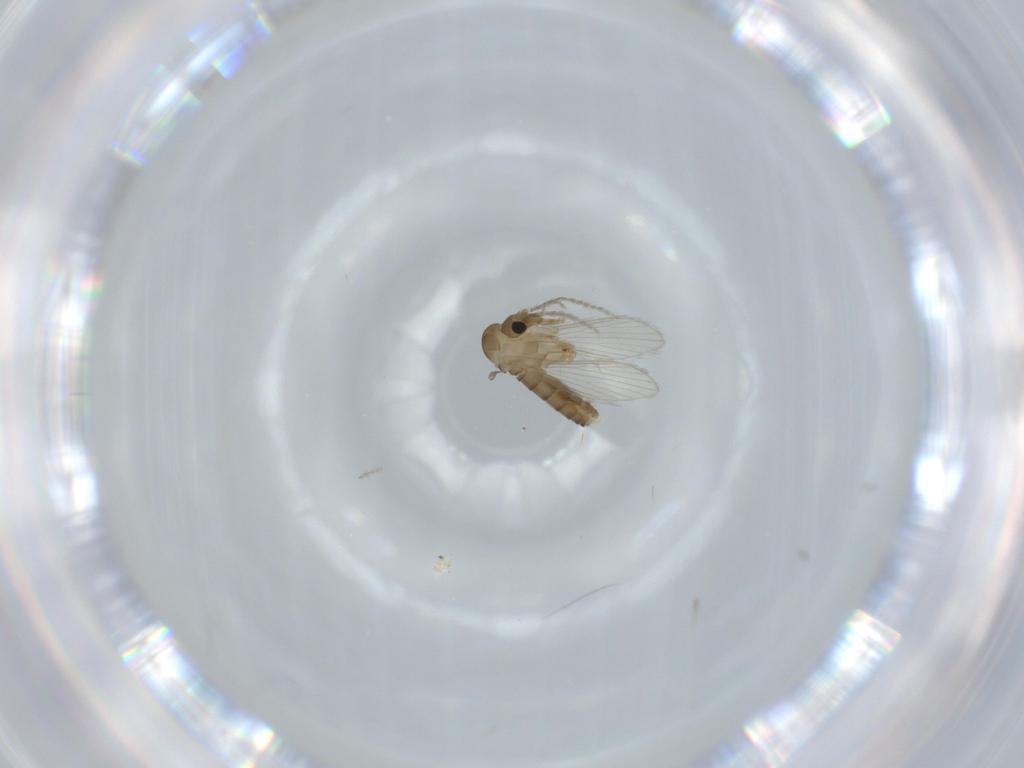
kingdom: Animalia
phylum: Arthropoda
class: Insecta
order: Diptera
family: Psychodidae
